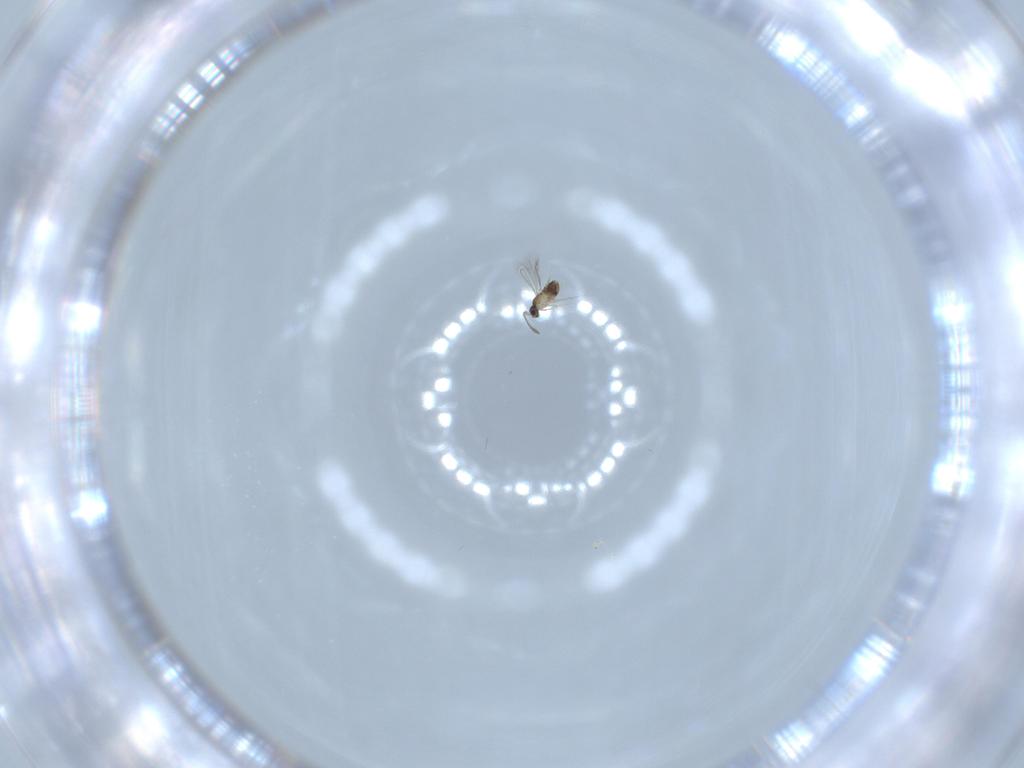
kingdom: Animalia
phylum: Arthropoda
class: Insecta
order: Hymenoptera
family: Mymaridae
